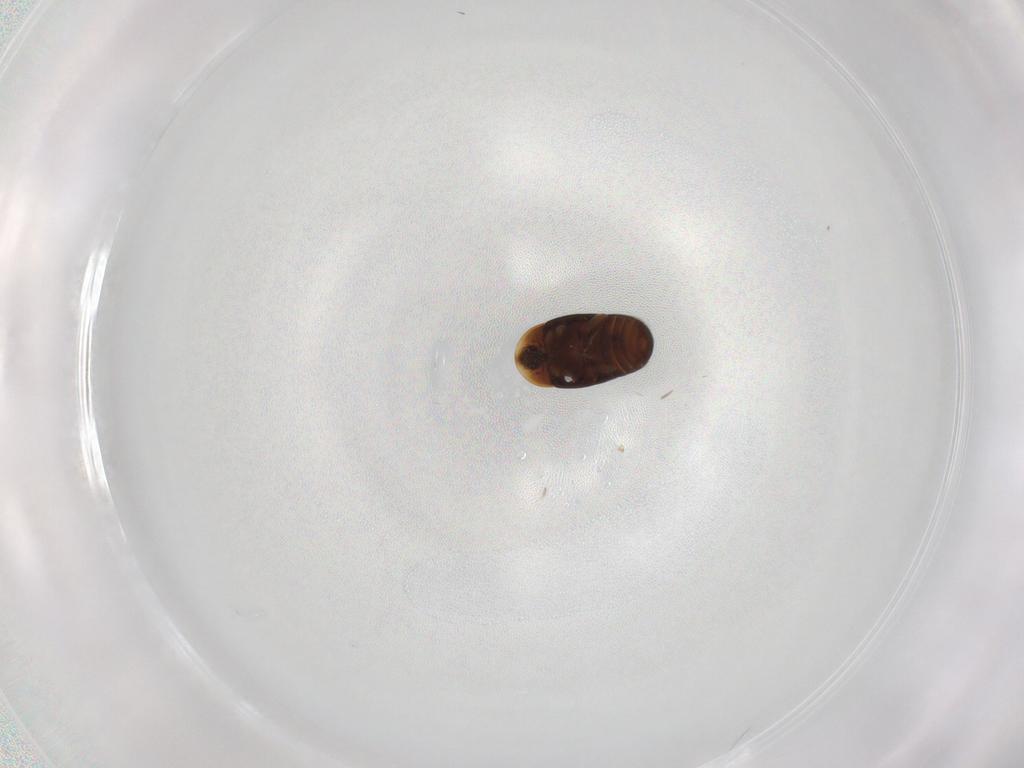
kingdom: Animalia
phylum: Arthropoda
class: Insecta
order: Coleoptera
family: Corylophidae
